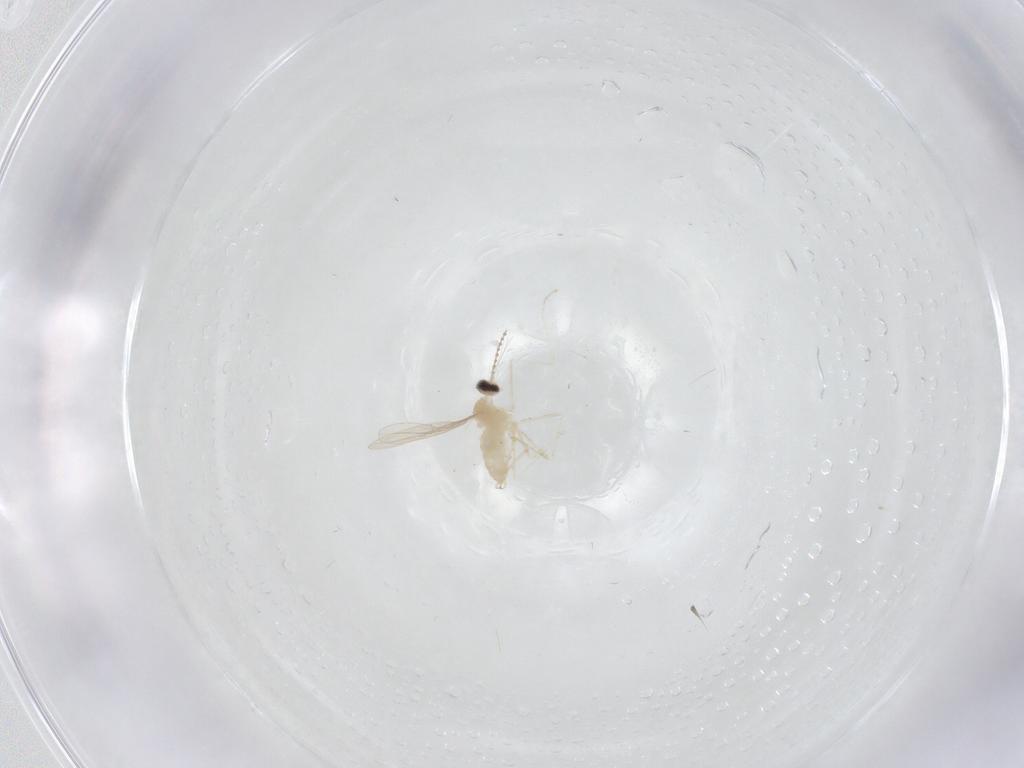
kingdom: Animalia
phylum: Arthropoda
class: Insecta
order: Diptera
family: Cecidomyiidae
